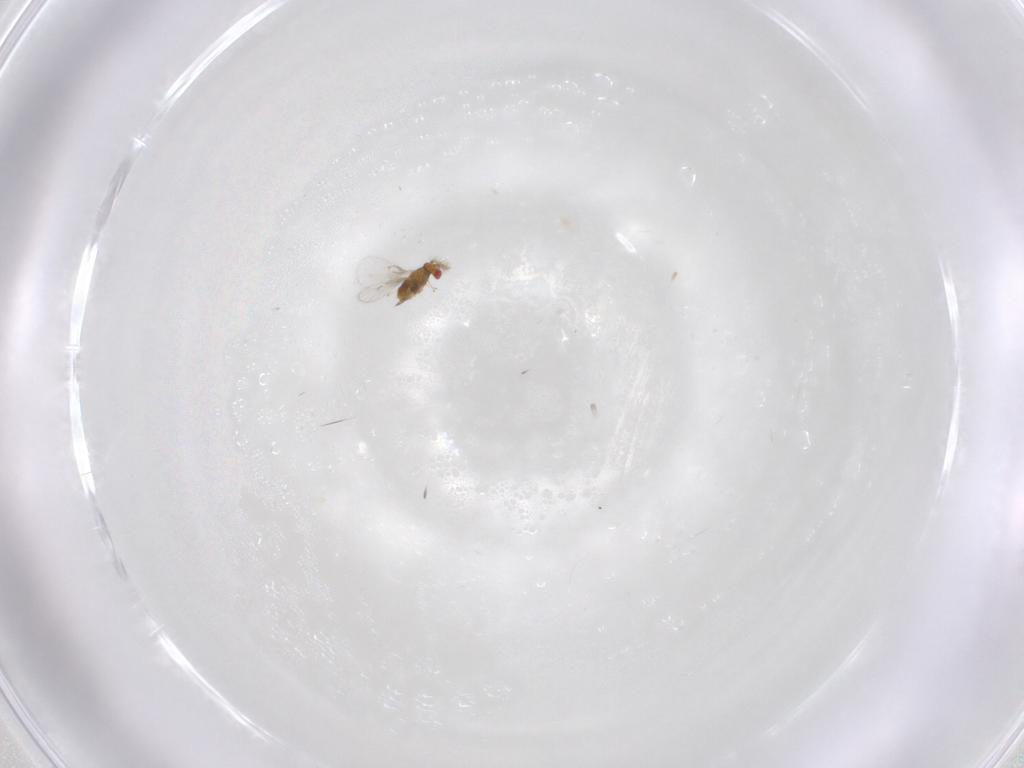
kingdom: Animalia
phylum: Arthropoda
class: Insecta
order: Hymenoptera
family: Trichogrammatidae
